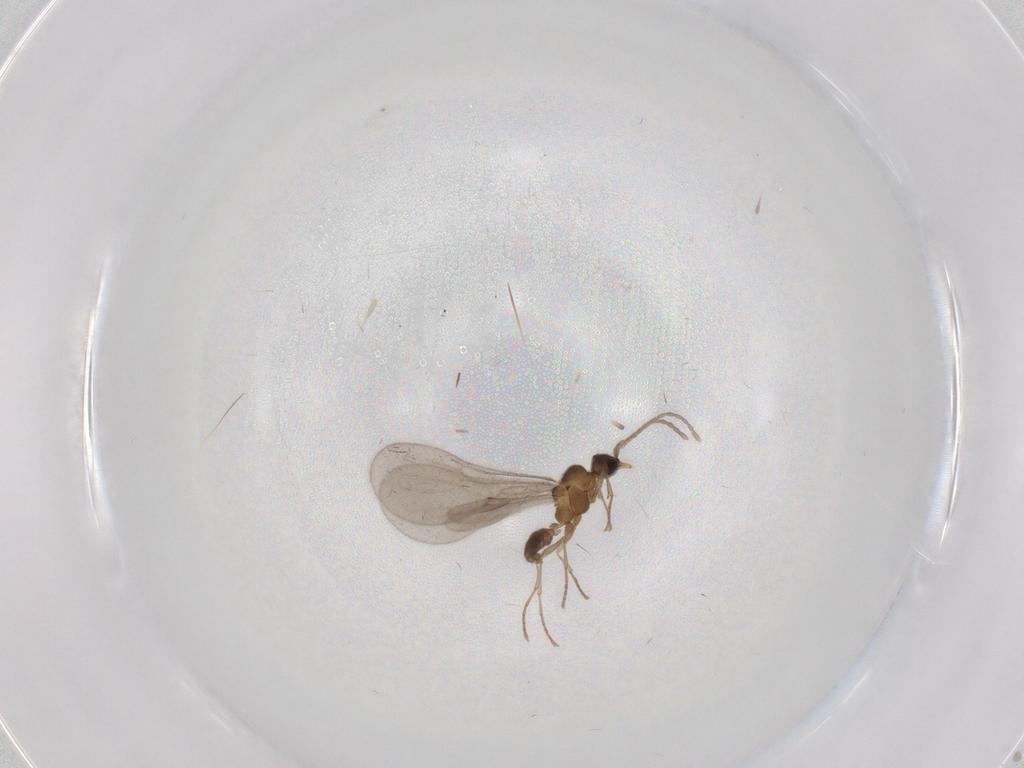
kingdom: Animalia
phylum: Arthropoda
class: Insecta
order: Hymenoptera
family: Formicidae
